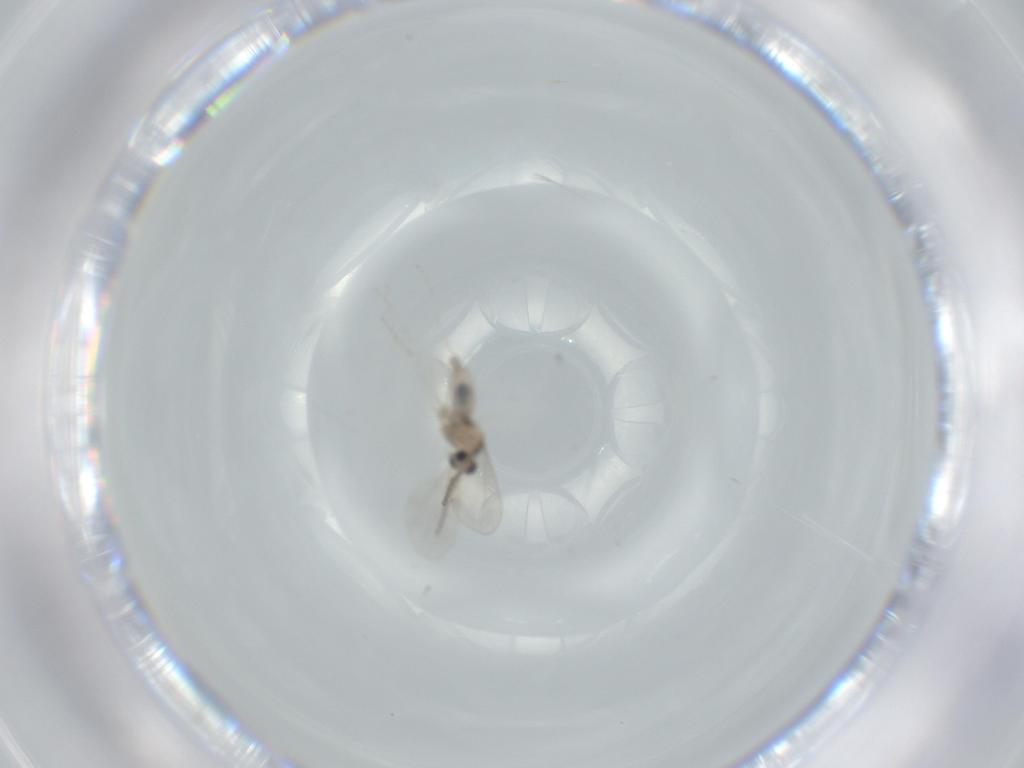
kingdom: Animalia
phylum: Arthropoda
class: Insecta
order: Diptera
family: Cecidomyiidae
